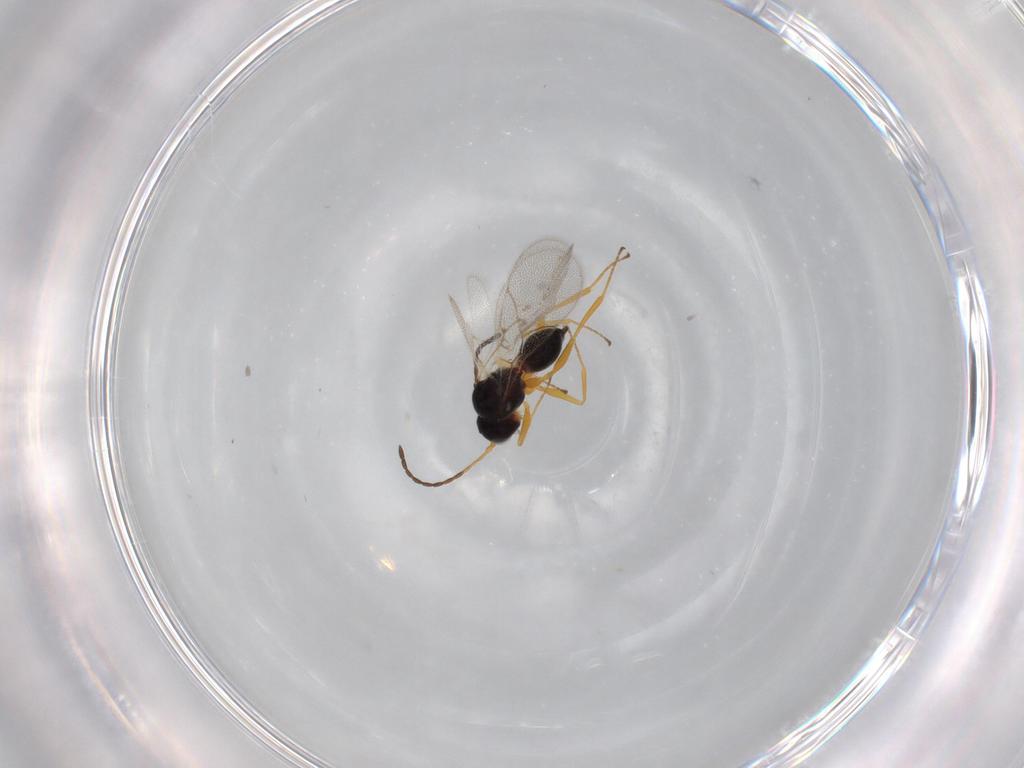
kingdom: Animalia
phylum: Arthropoda
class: Insecta
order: Hymenoptera
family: Figitidae
